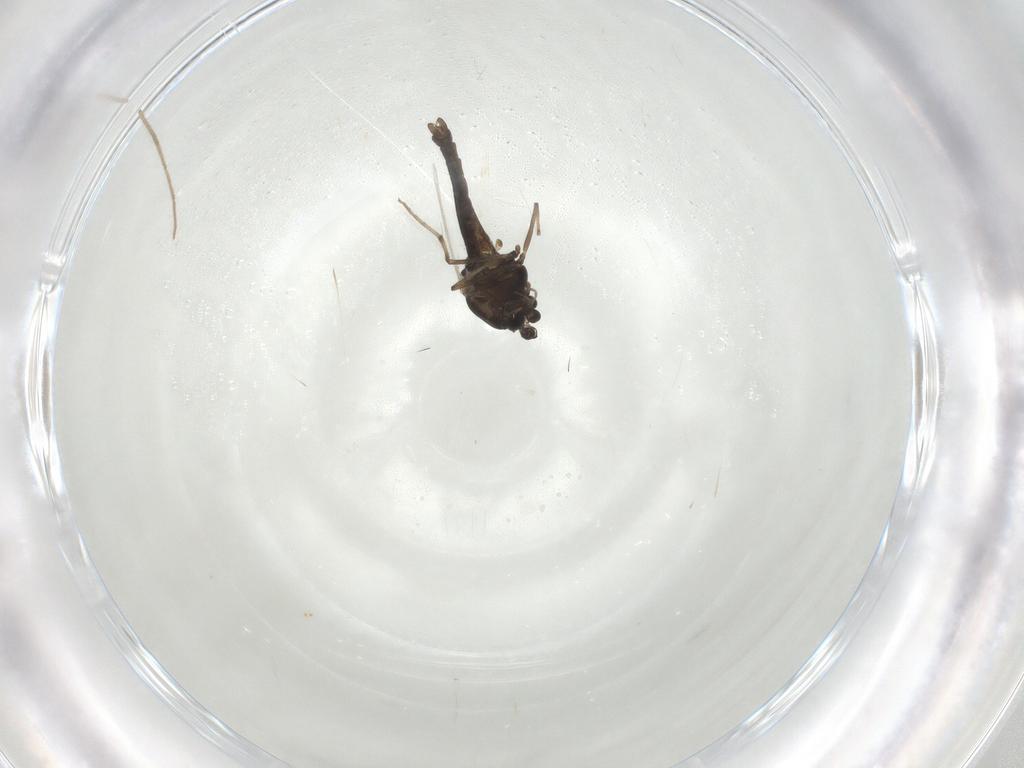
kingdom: Animalia
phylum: Arthropoda
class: Insecta
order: Diptera
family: Chironomidae
